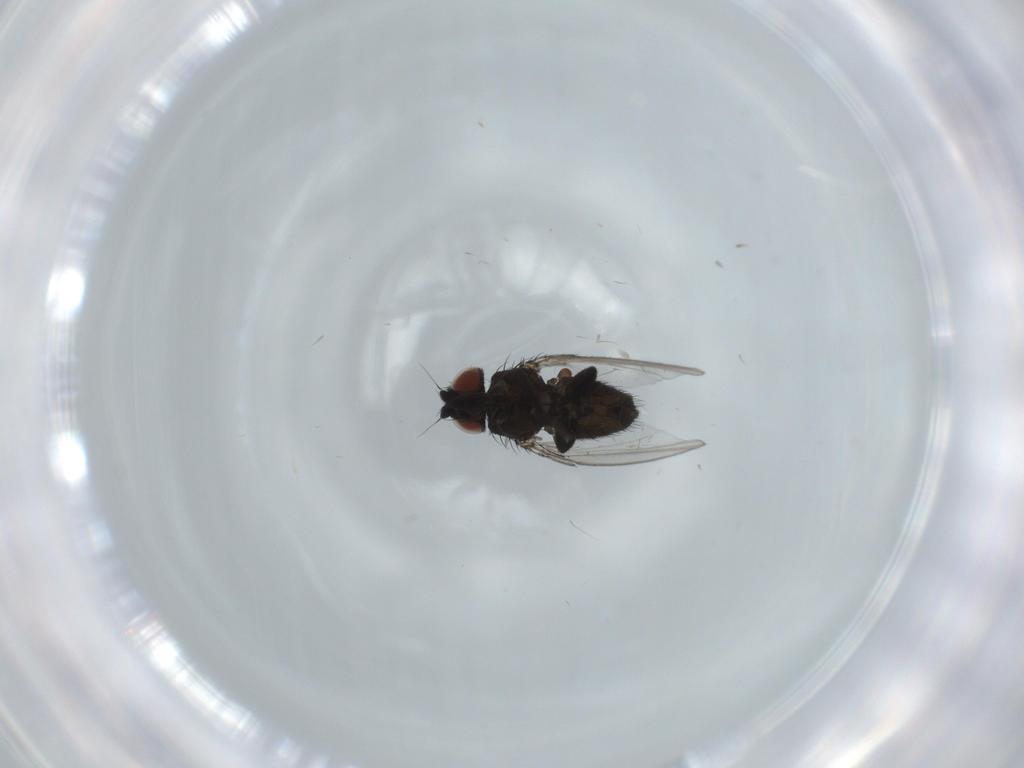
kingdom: Animalia
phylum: Arthropoda
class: Insecta
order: Diptera
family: Milichiidae
